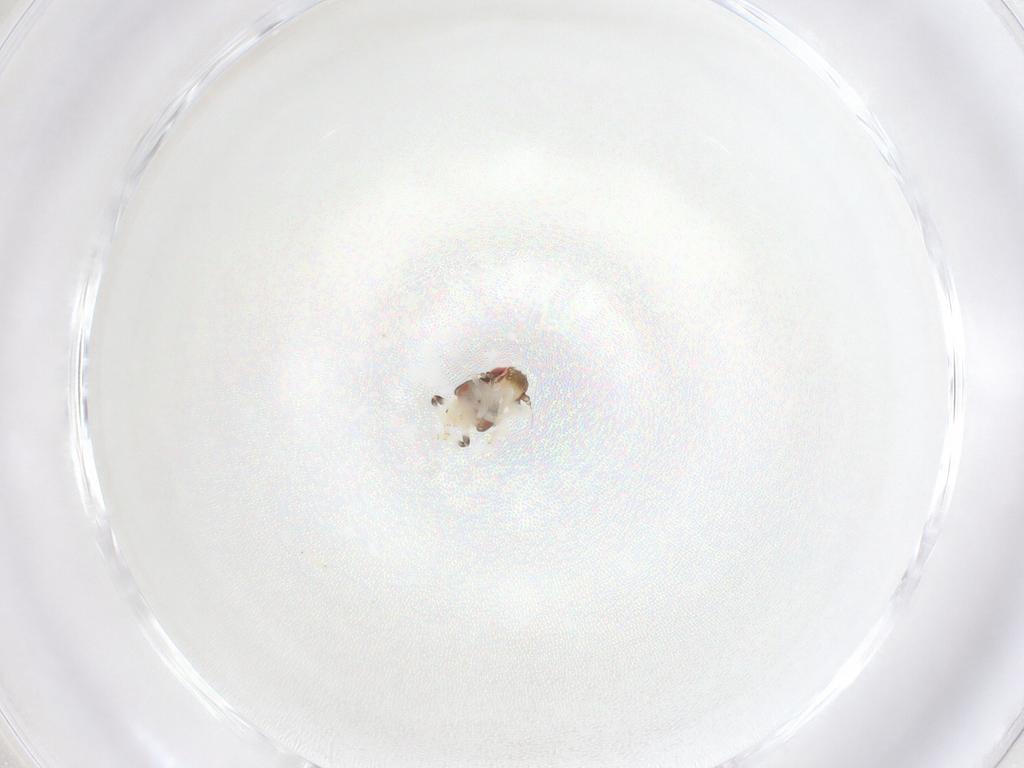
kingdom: Animalia
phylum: Arthropoda
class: Insecta
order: Hemiptera
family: Nogodinidae
